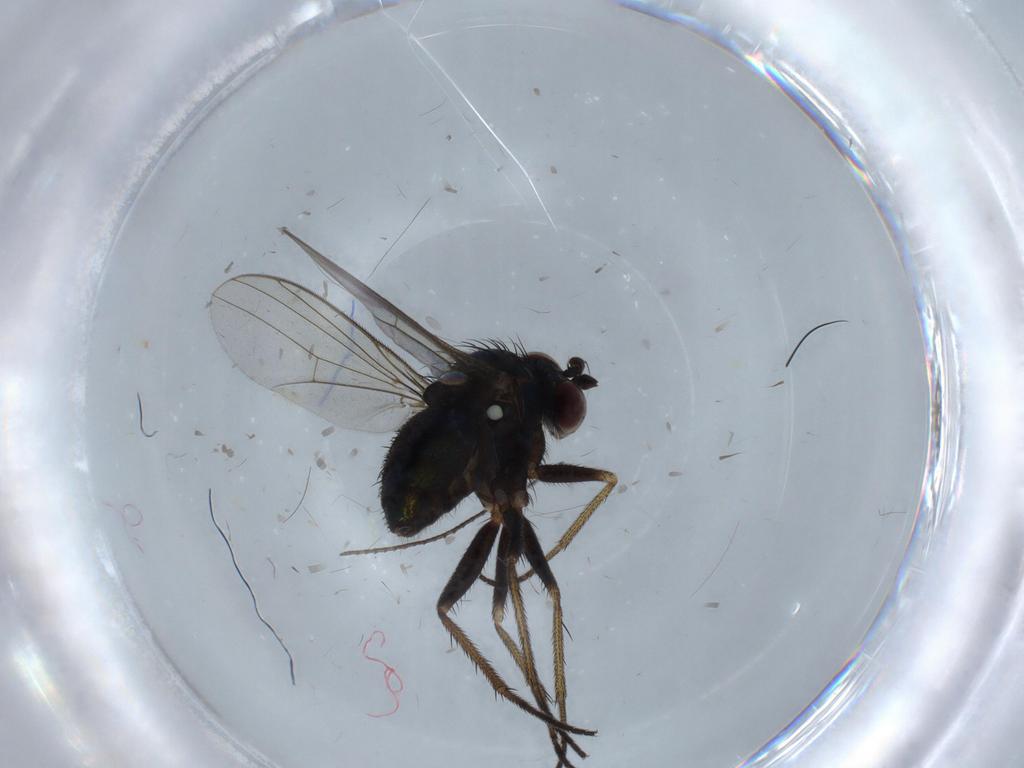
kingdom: Animalia
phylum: Arthropoda
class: Insecta
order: Diptera
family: Dolichopodidae
